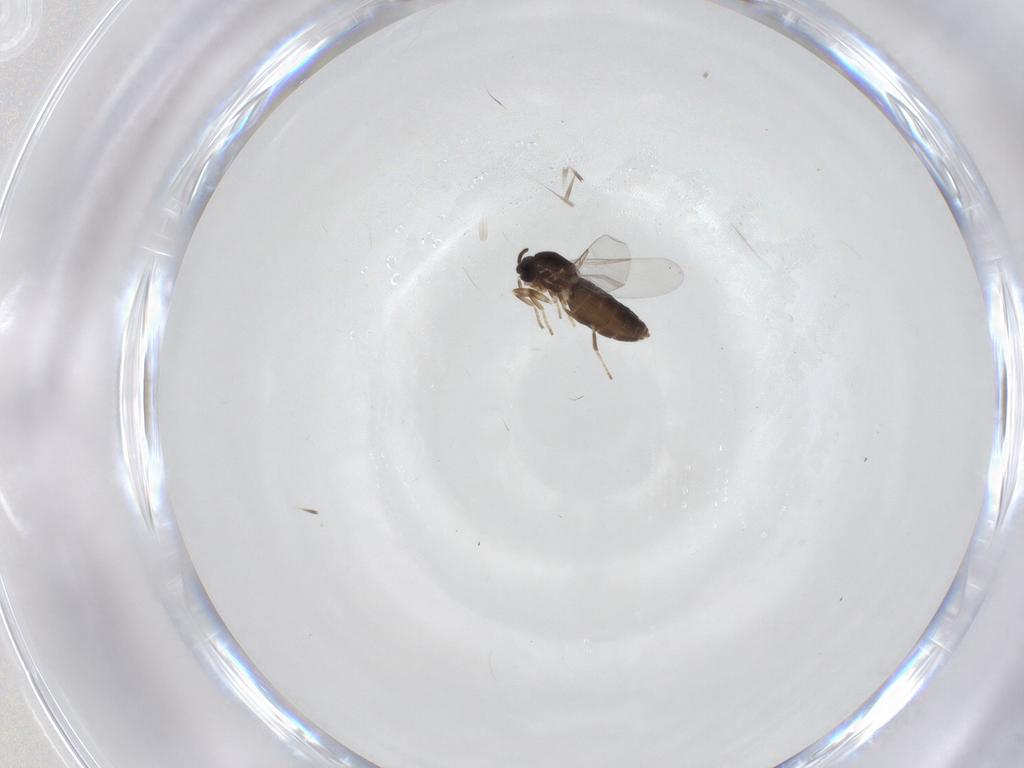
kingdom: Animalia
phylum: Arthropoda
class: Insecta
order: Diptera
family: Scatopsidae
